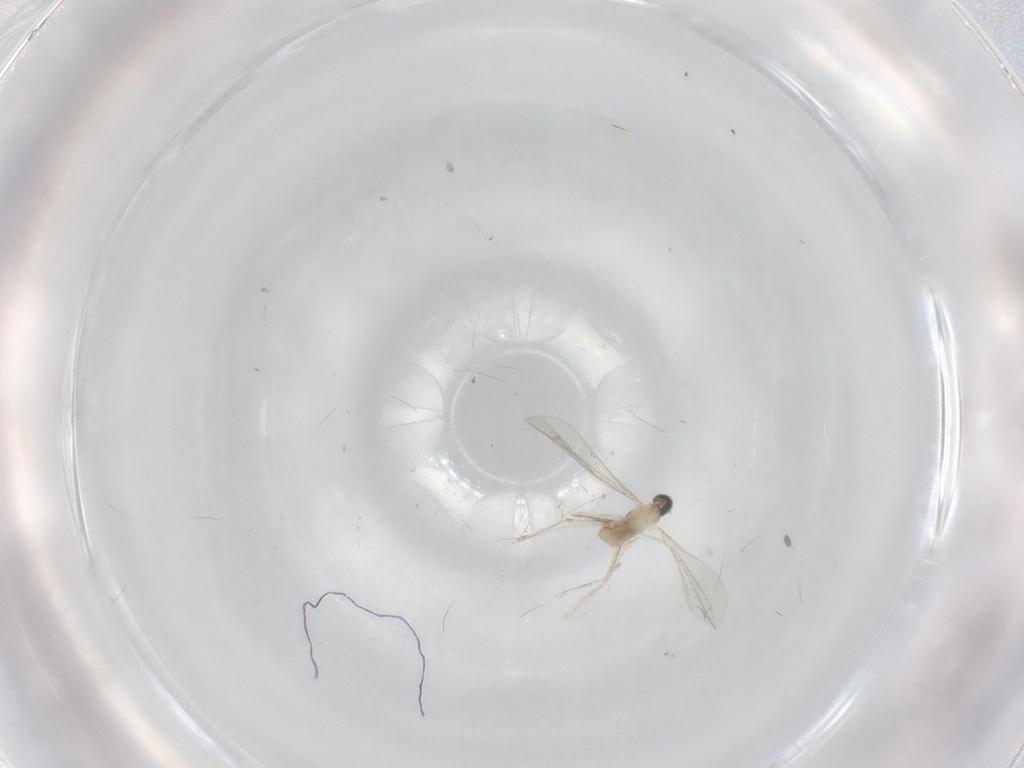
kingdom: Animalia
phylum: Arthropoda
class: Insecta
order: Diptera
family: Cecidomyiidae
